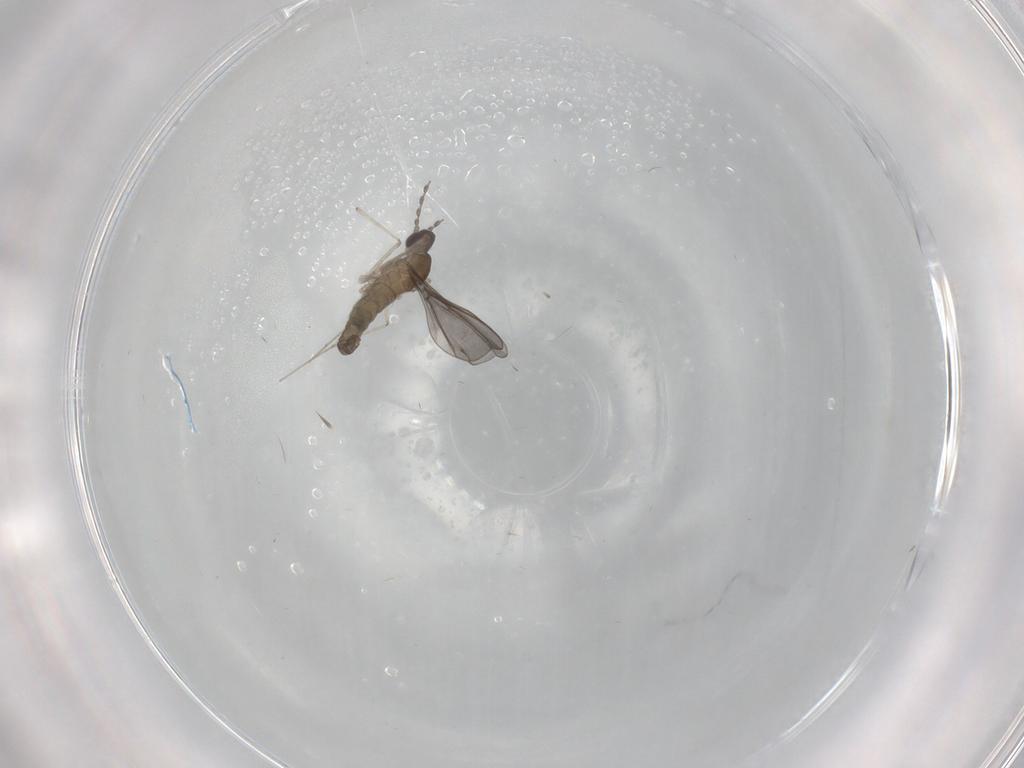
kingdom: Animalia
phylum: Arthropoda
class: Insecta
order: Diptera
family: Cecidomyiidae
